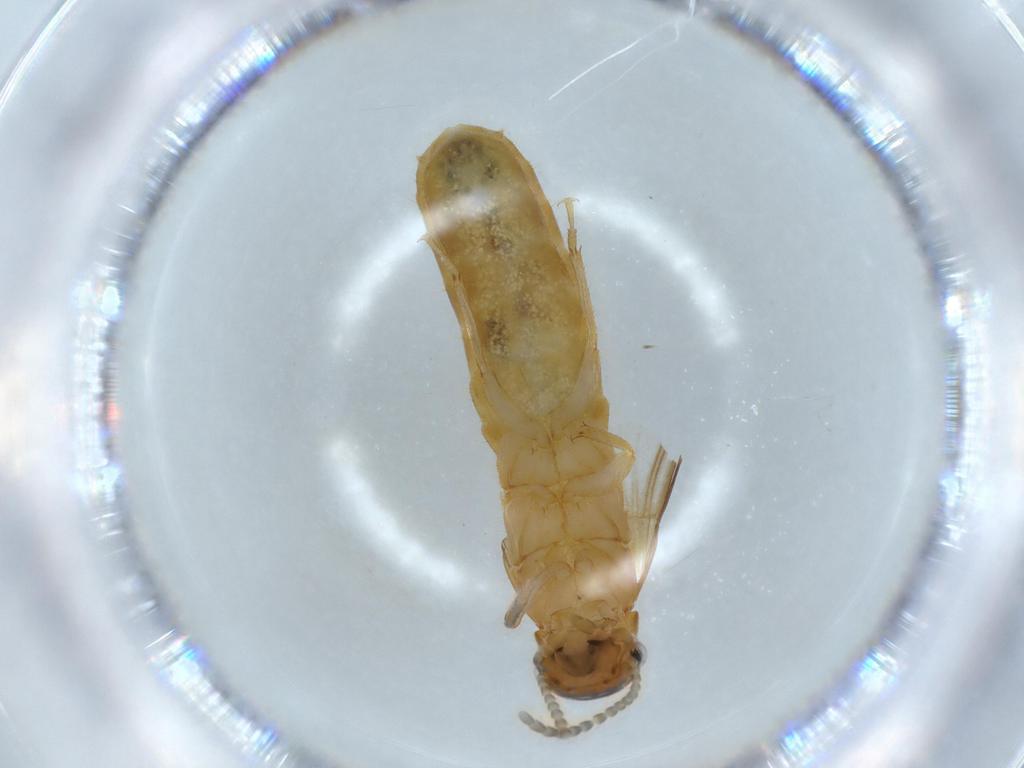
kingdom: Animalia
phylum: Arthropoda
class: Insecta
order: Blattodea
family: Kalotermitidae
